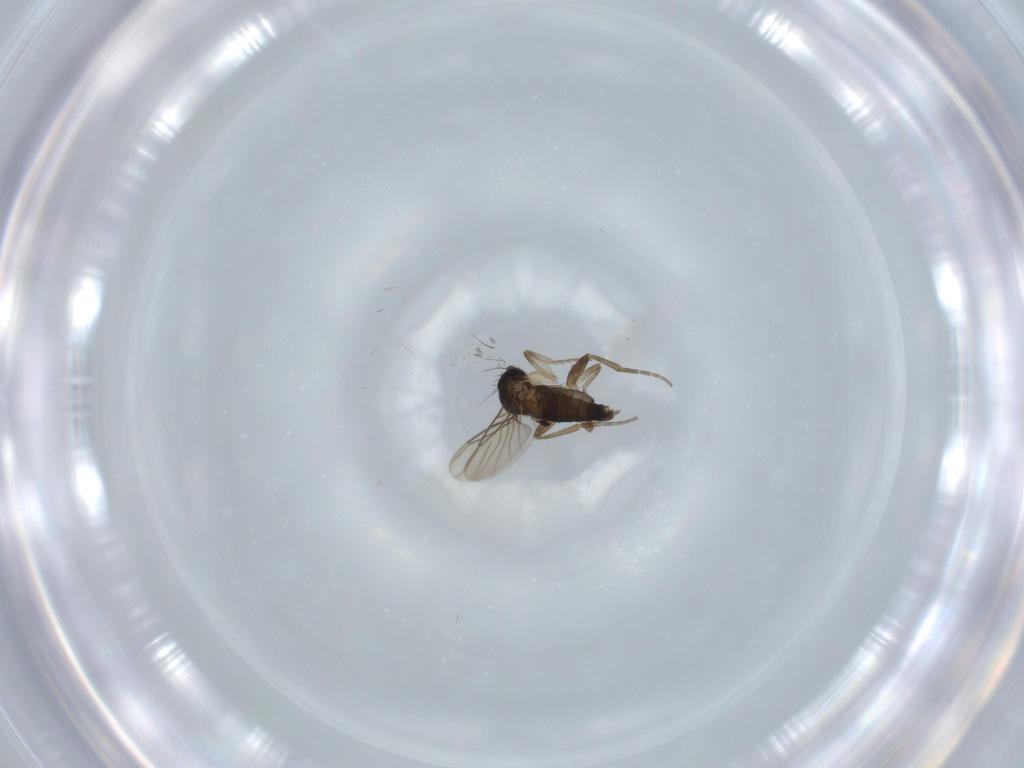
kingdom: Animalia
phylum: Arthropoda
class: Insecta
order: Diptera
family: Phoridae
